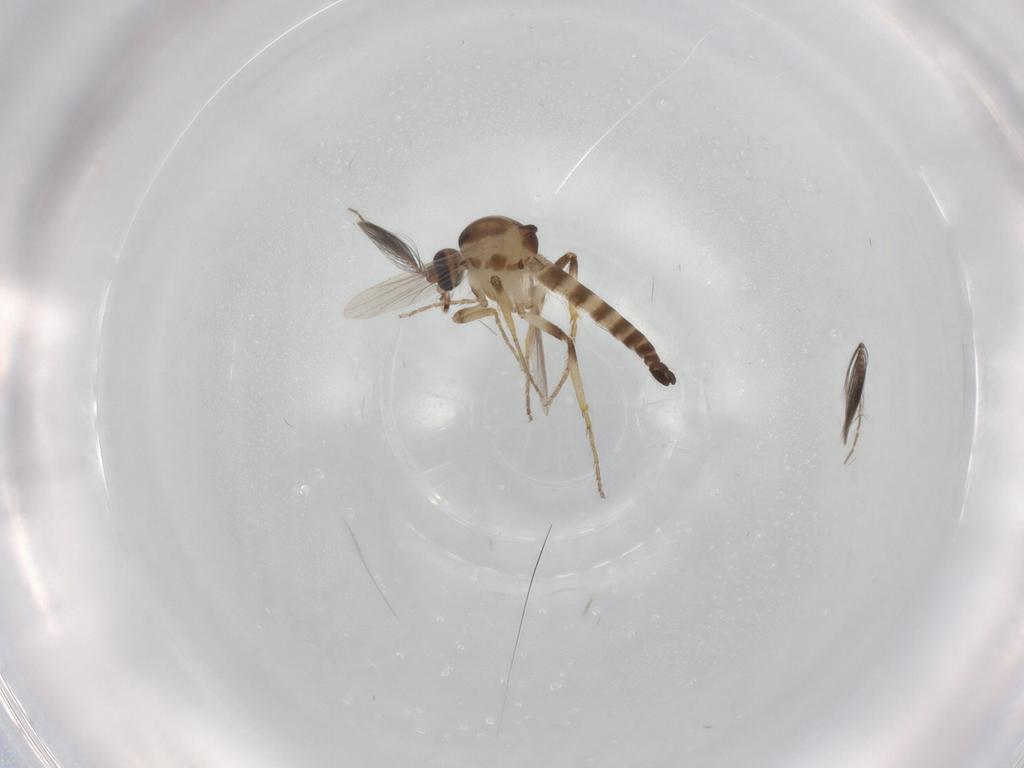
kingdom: Animalia
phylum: Arthropoda
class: Insecta
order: Diptera
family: Ceratopogonidae
